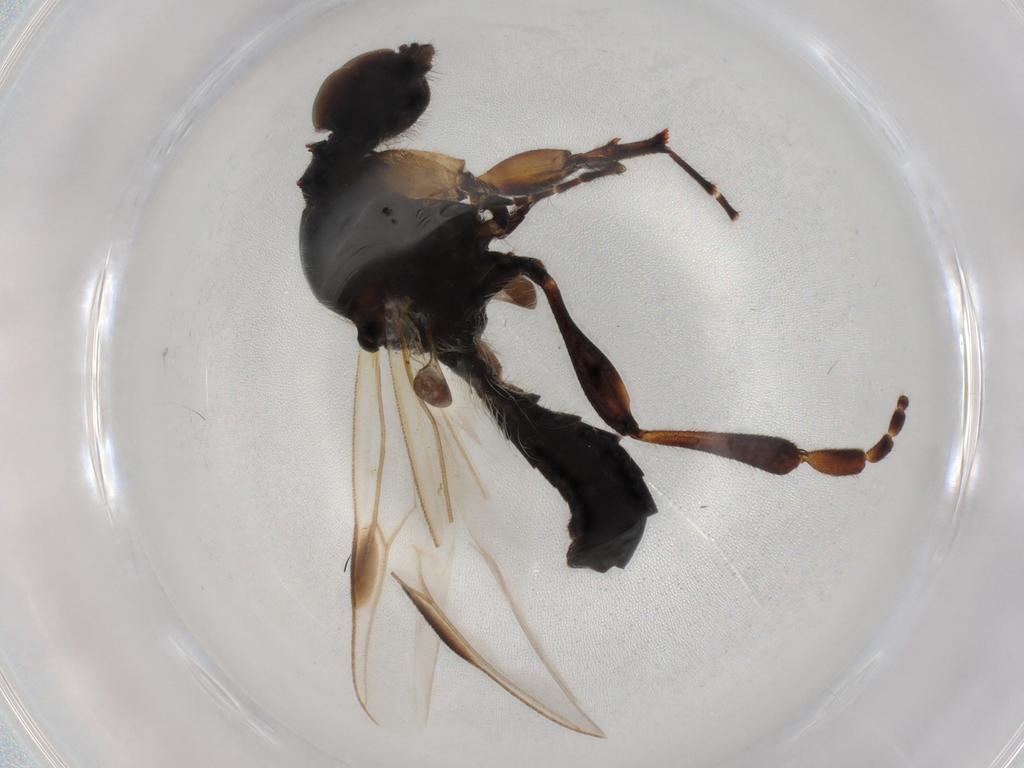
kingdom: Animalia
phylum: Arthropoda
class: Insecta
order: Diptera
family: Bibionidae
